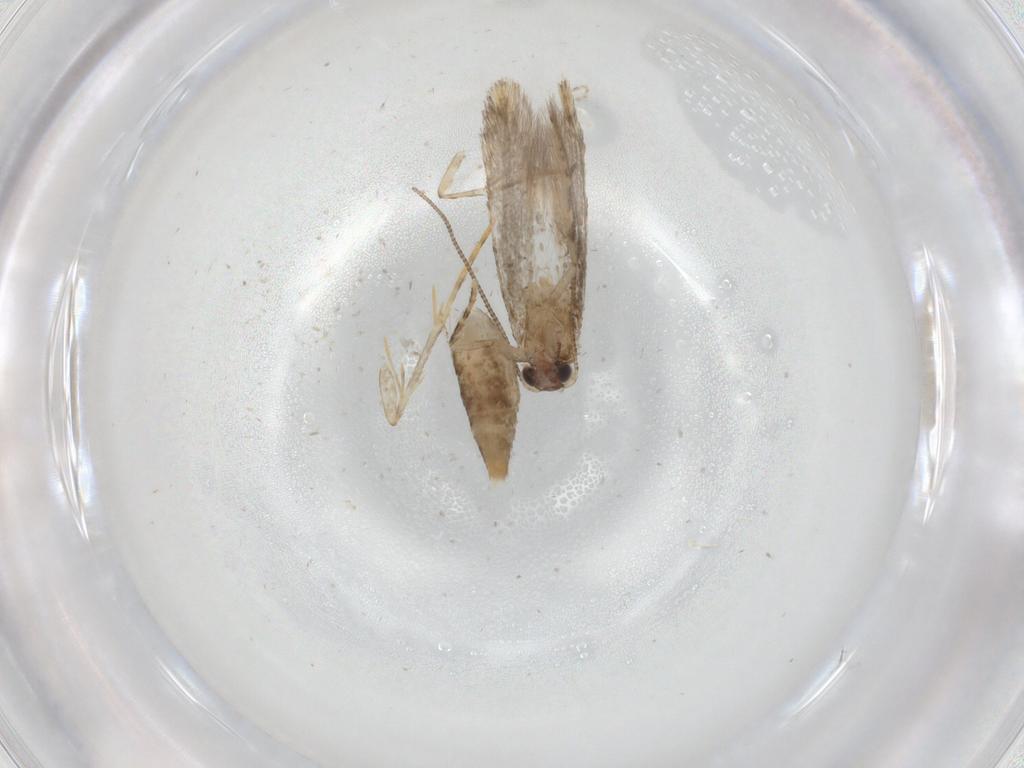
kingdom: Animalia
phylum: Arthropoda
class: Insecta
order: Lepidoptera
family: Tineidae
